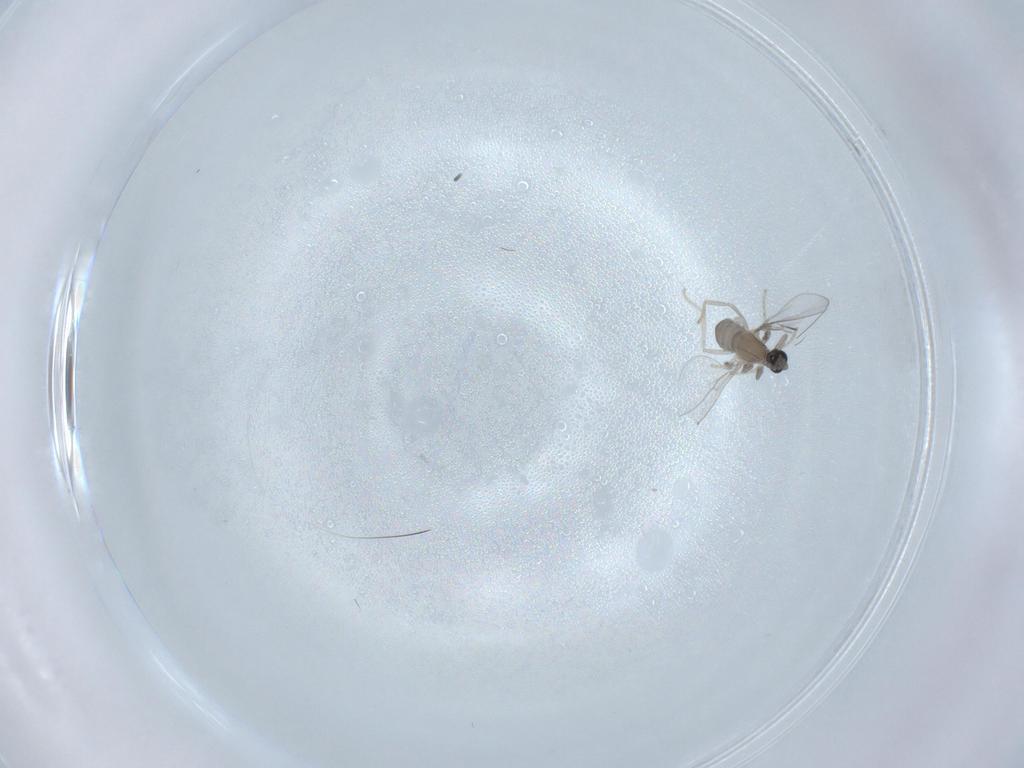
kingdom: Animalia
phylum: Arthropoda
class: Insecta
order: Diptera
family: Cecidomyiidae
